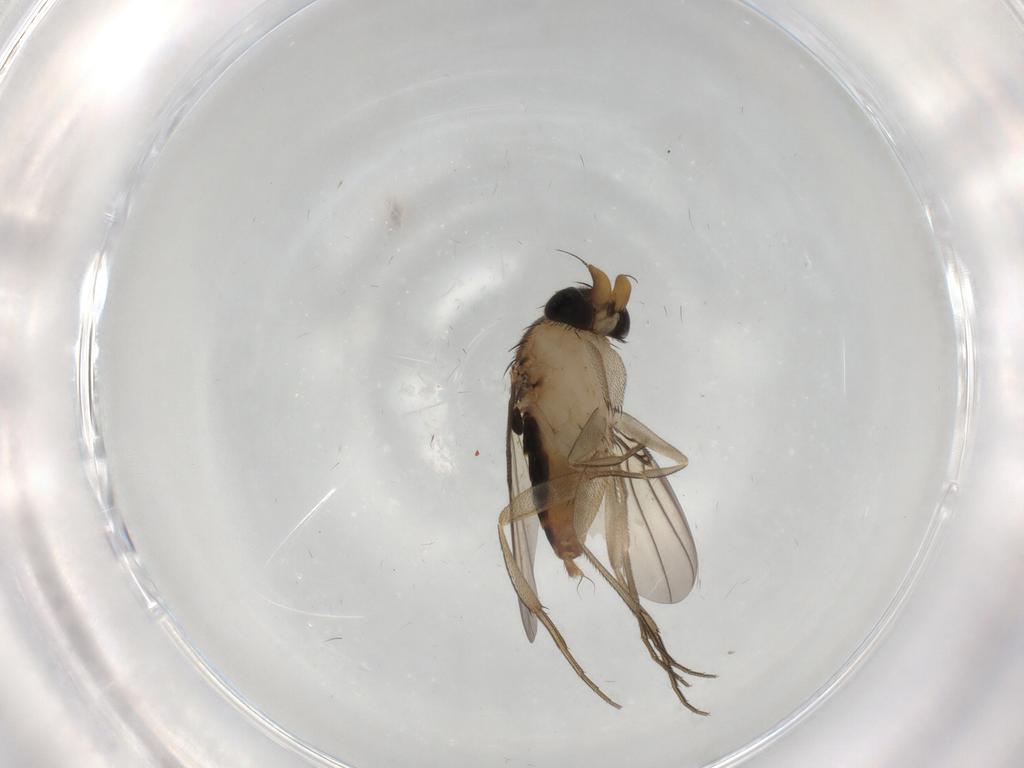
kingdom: Animalia
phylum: Arthropoda
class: Insecta
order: Diptera
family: Phoridae
